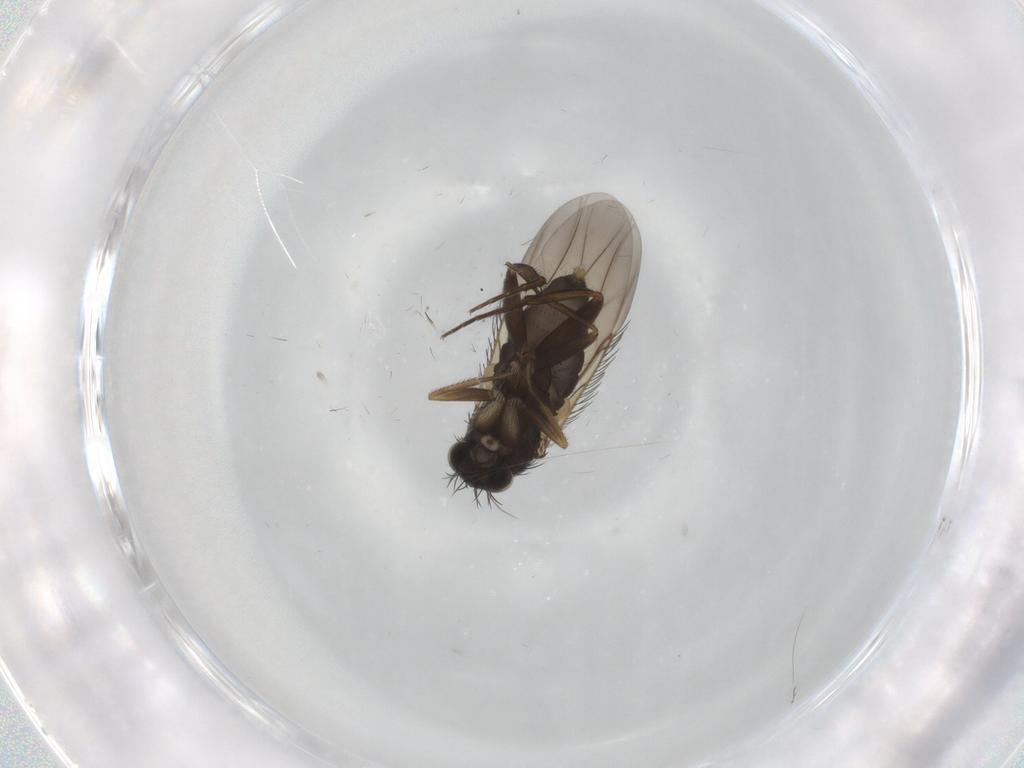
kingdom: Animalia
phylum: Arthropoda
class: Insecta
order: Diptera
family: Phoridae
